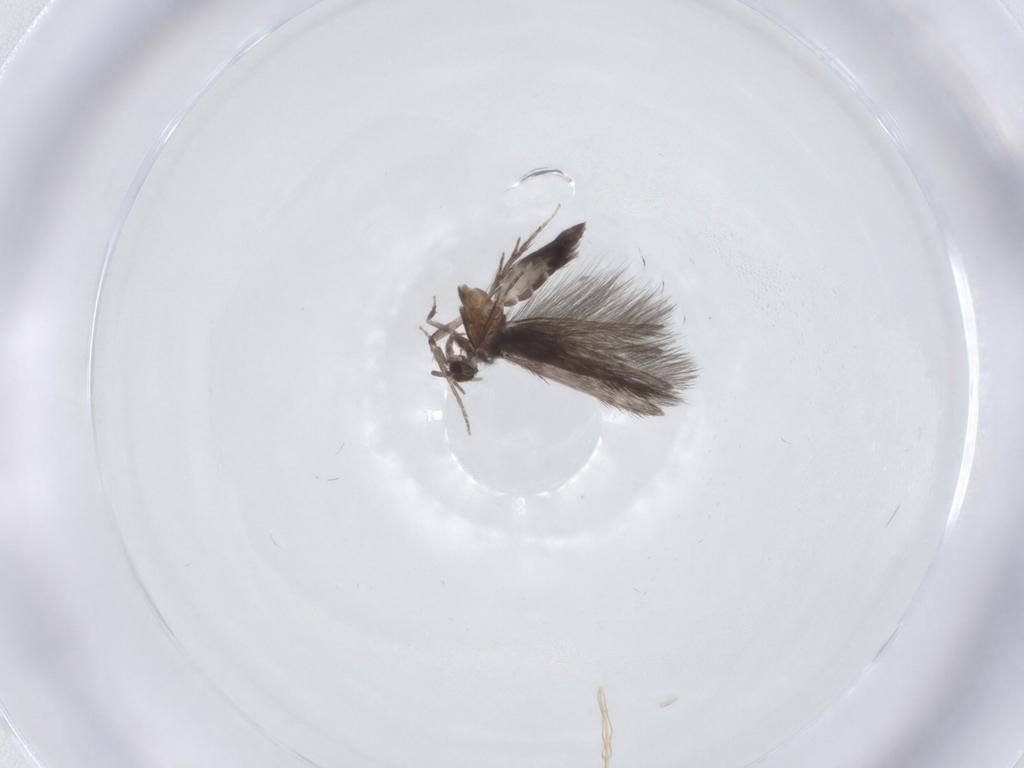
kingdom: Animalia
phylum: Arthropoda
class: Insecta
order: Trichoptera
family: Hydroptilidae
